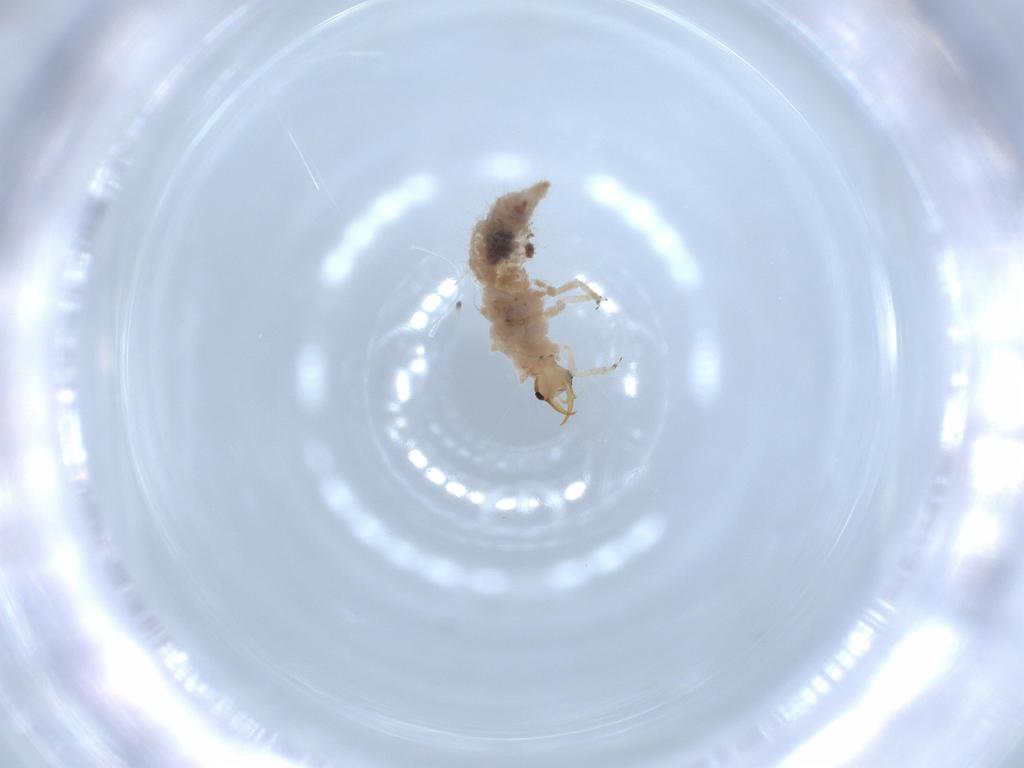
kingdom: Animalia
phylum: Arthropoda
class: Insecta
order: Neuroptera
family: Chrysopidae
